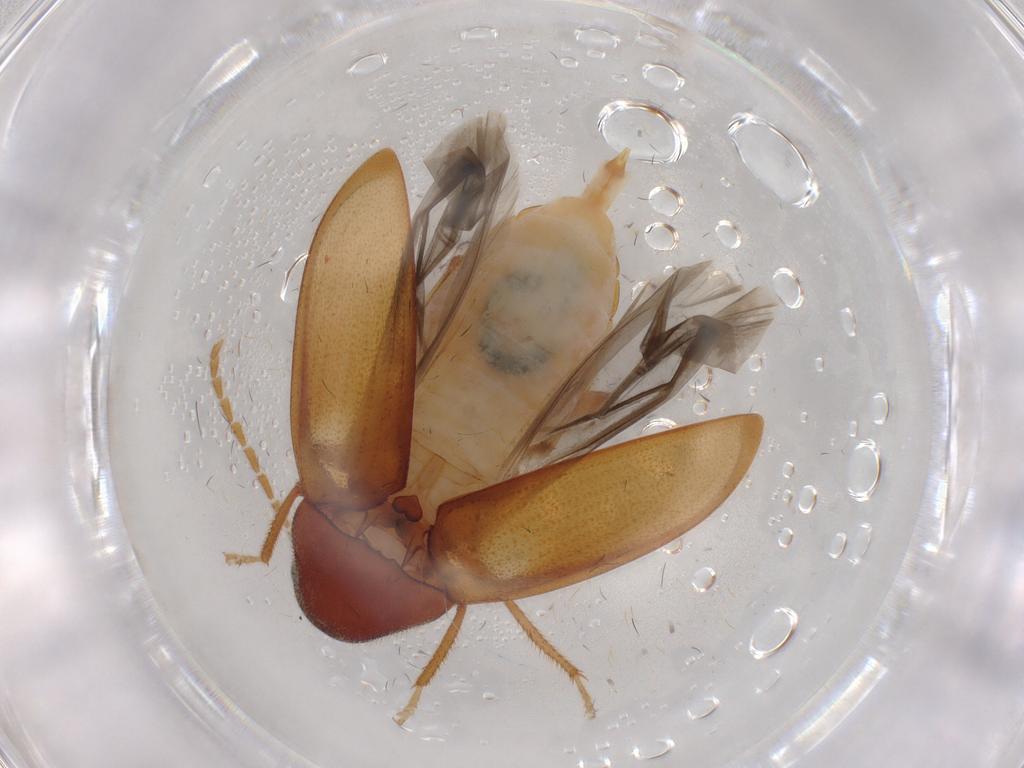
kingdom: Animalia
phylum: Arthropoda
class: Insecta
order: Coleoptera
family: Ptilodactylidae
